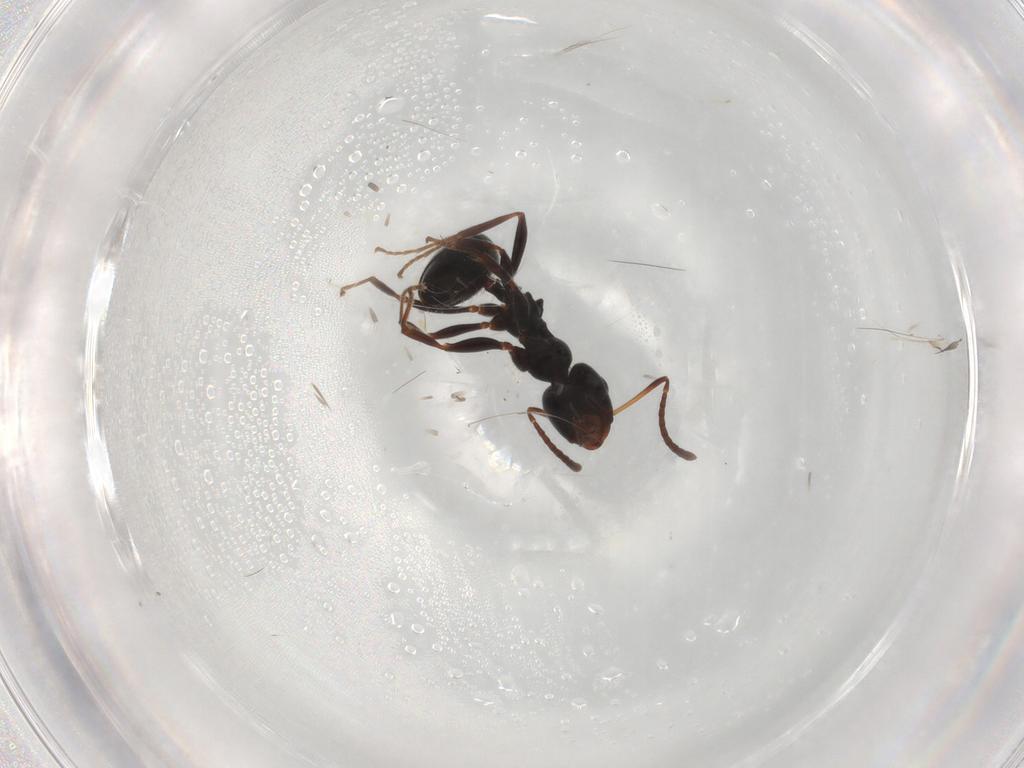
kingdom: Animalia
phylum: Arthropoda
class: Insecta
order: Hymenoptera
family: Formicidae
